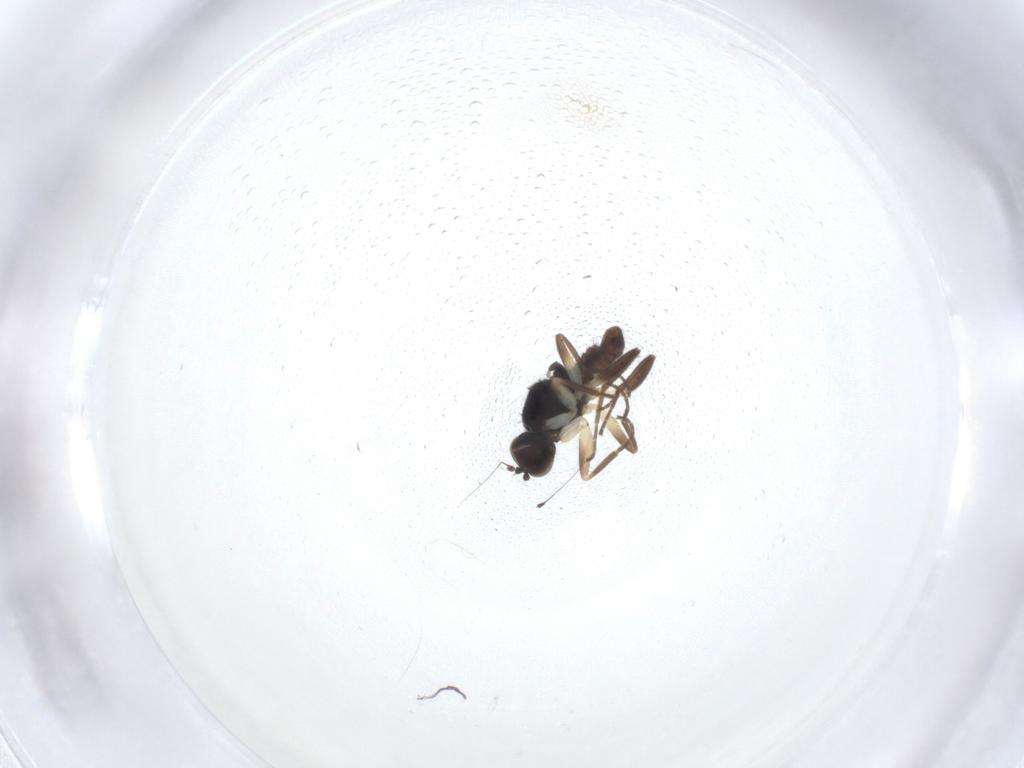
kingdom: Animalia
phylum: Arthropoda
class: Insecta
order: Diptera
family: Hybotidae
